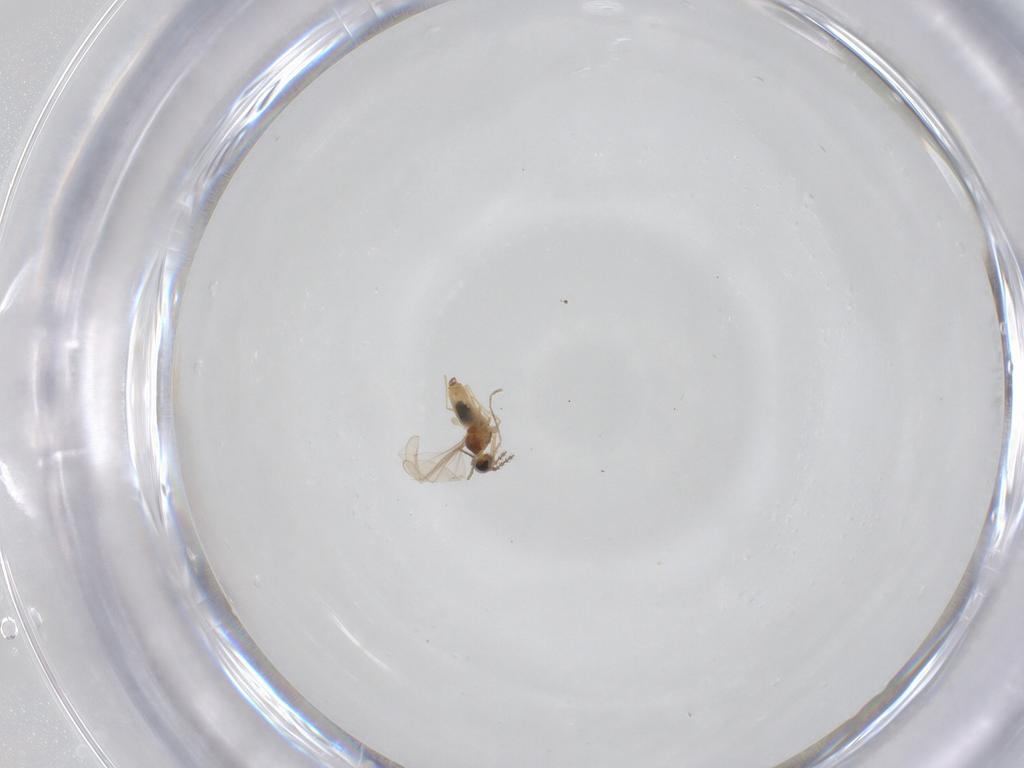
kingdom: Animalia
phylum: Arthropoda
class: Insecta
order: Diptera
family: Cecidomyiidae
